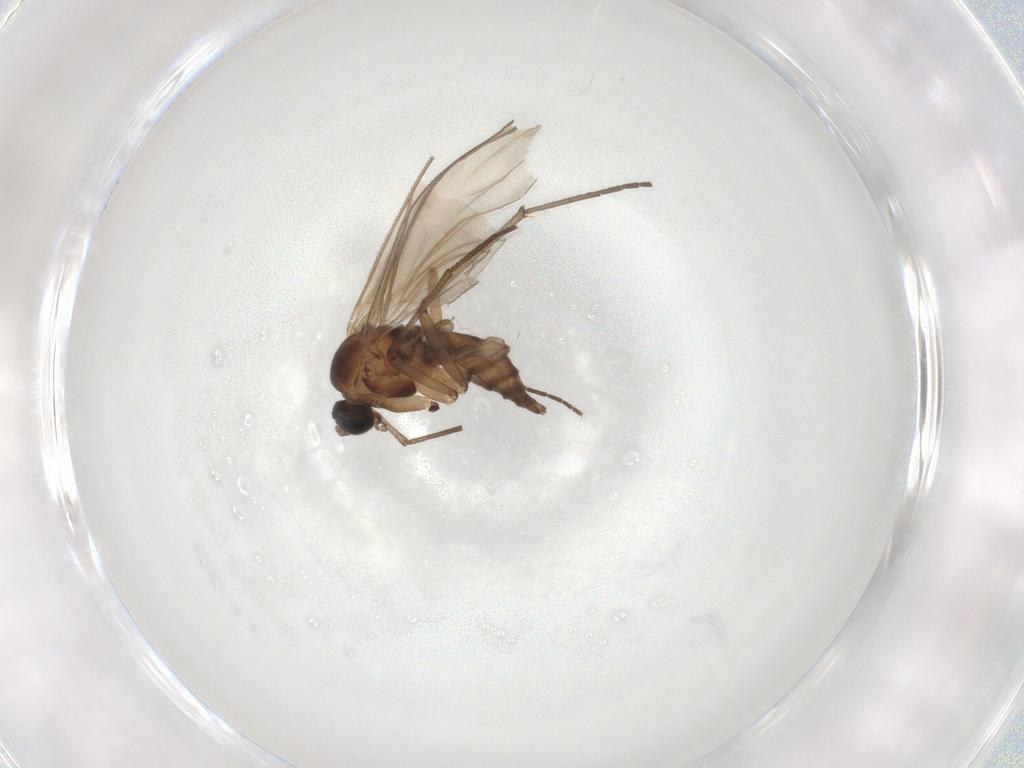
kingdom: Animalia
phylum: Arthropoda
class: Insecta
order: Diptera
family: Sciaridae
